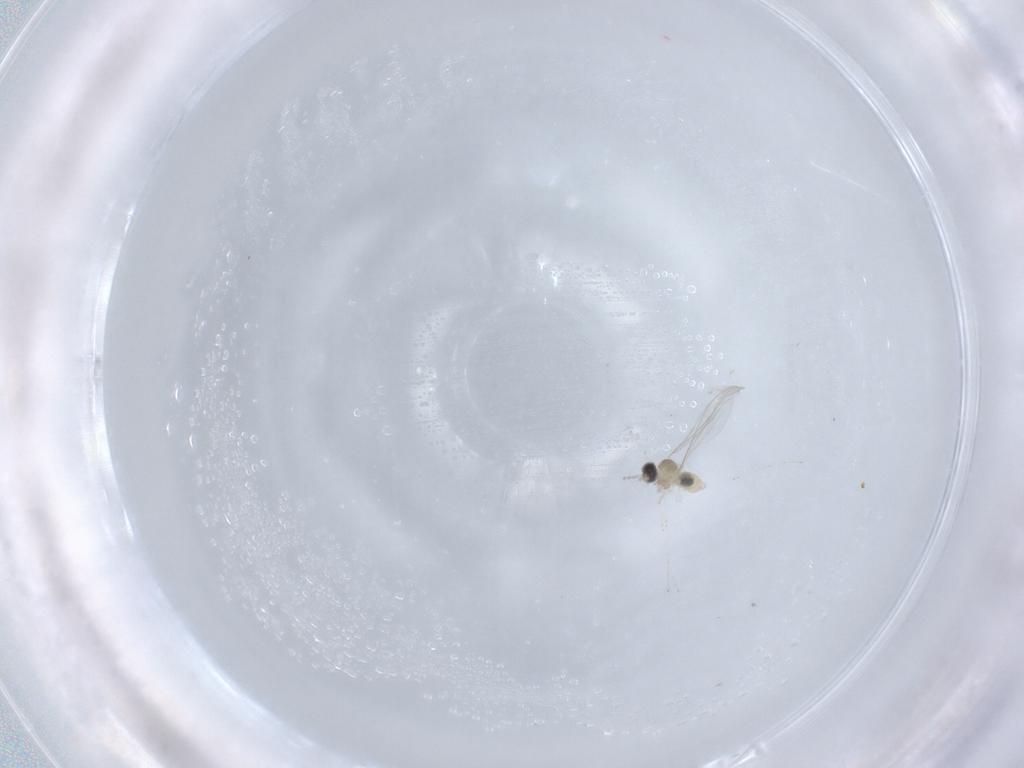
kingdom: Animalia
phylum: Arthropoda
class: Insecta
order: Diptera
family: Cecidomyiidae
